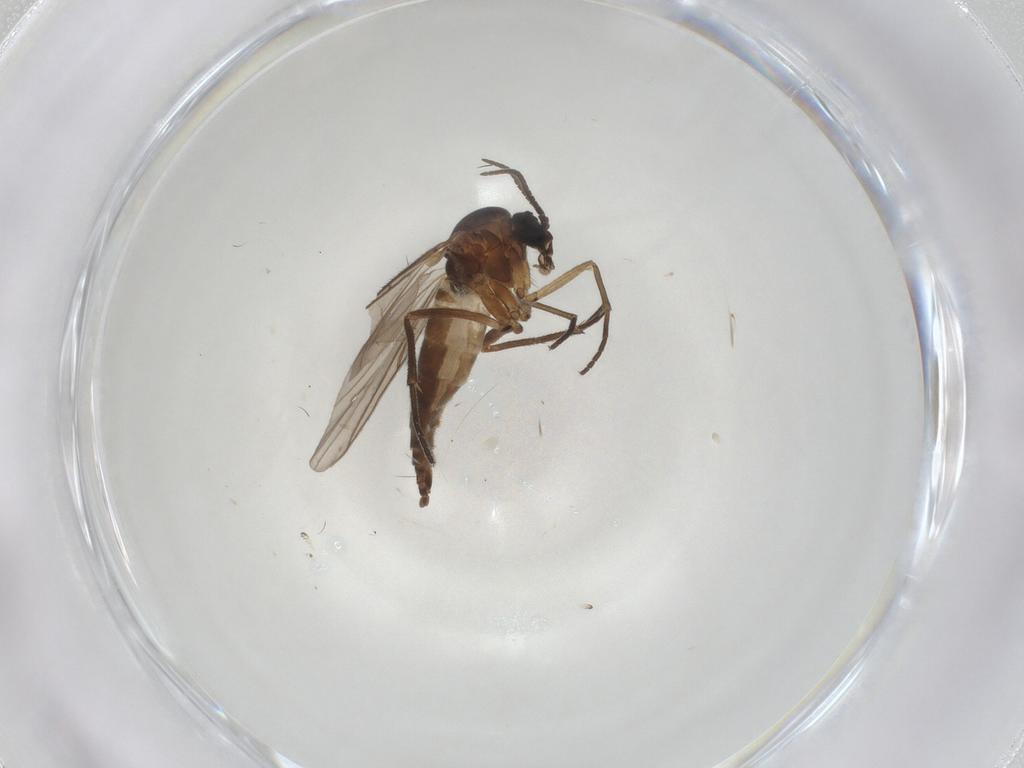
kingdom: Animalia
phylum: Arthropoda
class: Insecta
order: Diptera
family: Sciaridae
